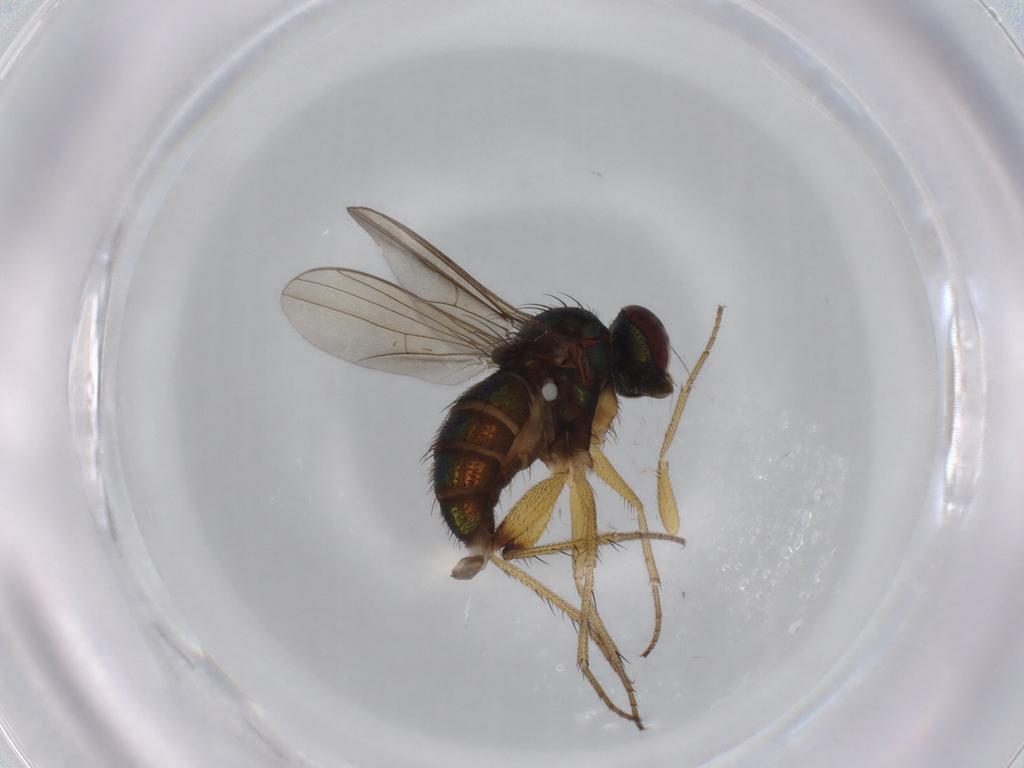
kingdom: Animalia
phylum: Arthropoda
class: Insecta
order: Diptera
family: Dolichopodidae
